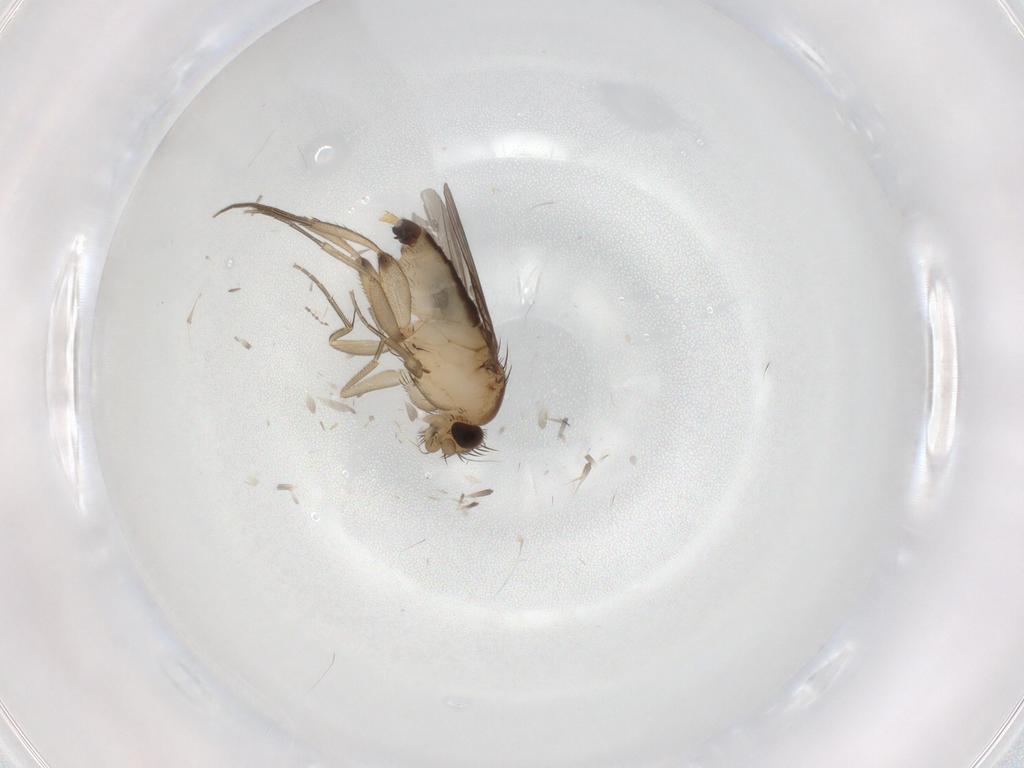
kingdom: Animalia
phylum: Arthropoda
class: Insecta
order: Diptera
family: Phoridae
